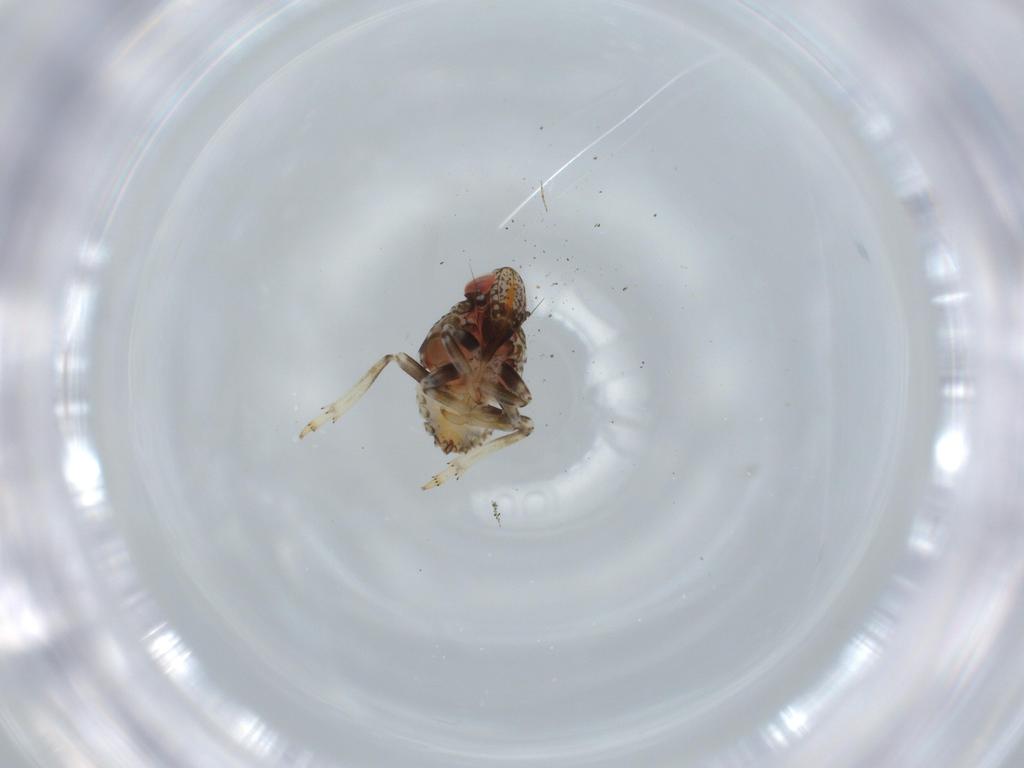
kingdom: Animalia
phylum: Arthropoda
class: Insecta
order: Hemiptera
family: Issidae
